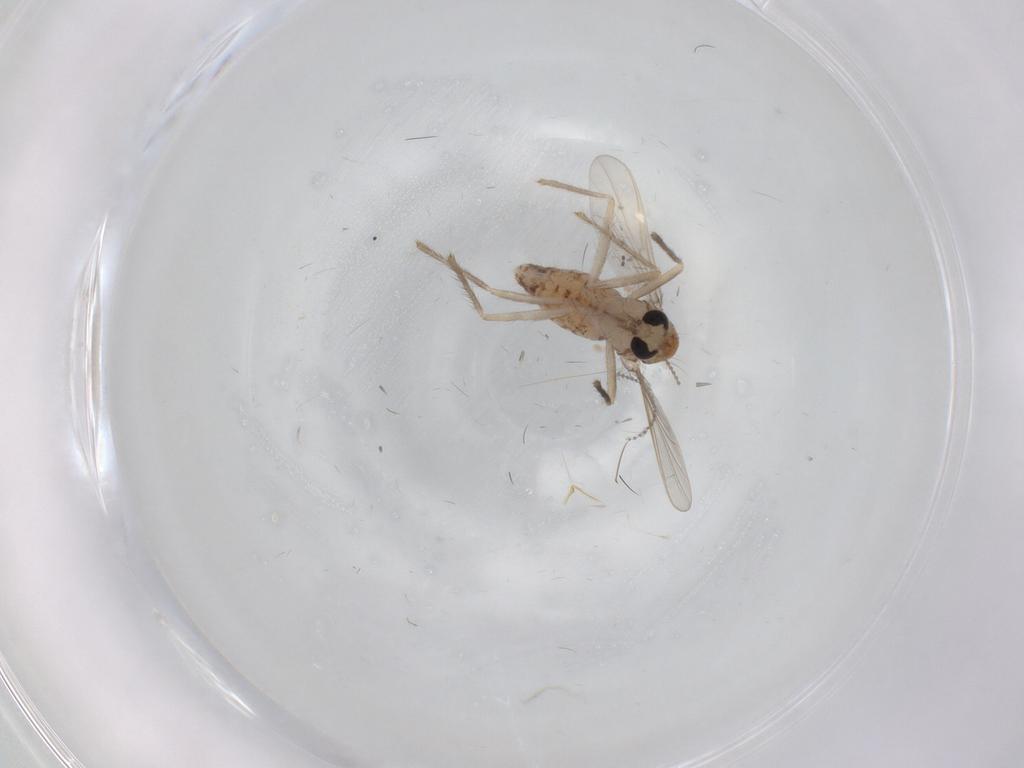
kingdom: Animalia
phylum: Arthropoda
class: Insecta
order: Diptera
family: Chironomidae
